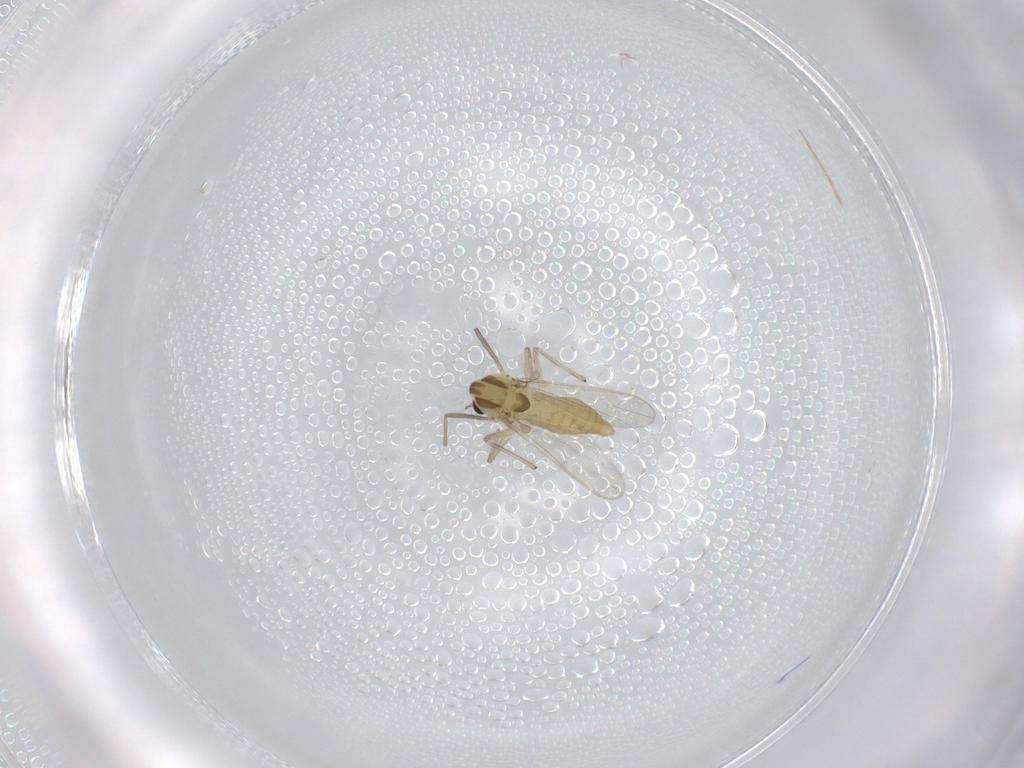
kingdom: Animalia
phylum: Arthropoda
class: Insecta
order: Diptera
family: Chironomidae
